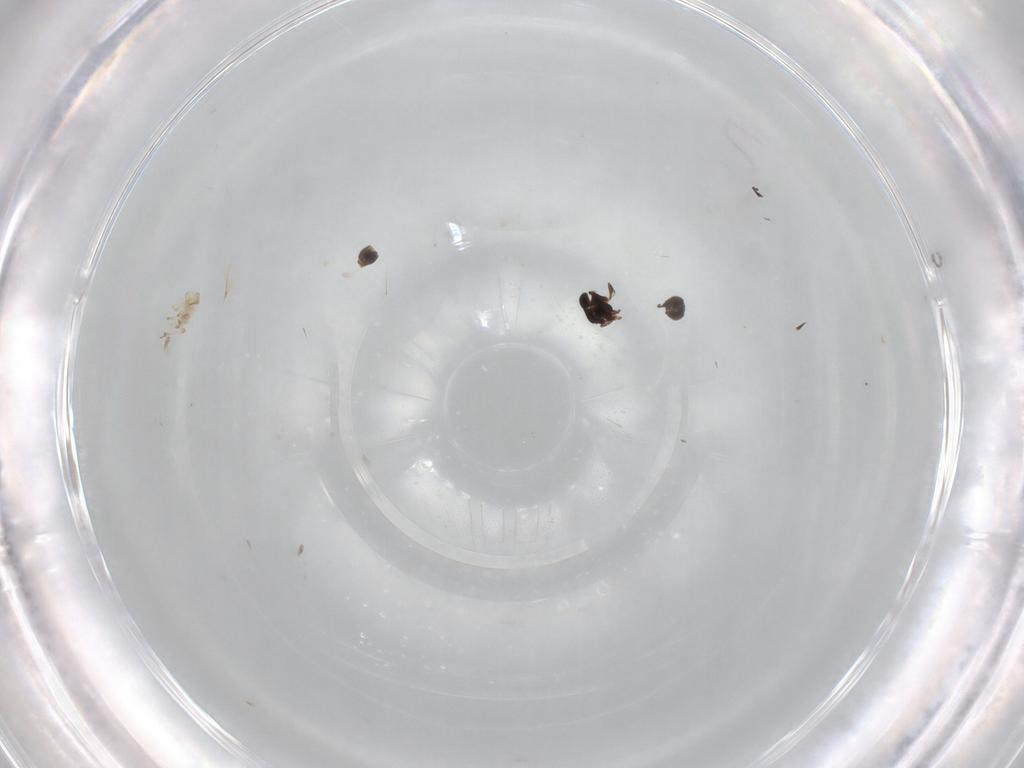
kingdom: Animalia
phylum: Arthropoda
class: Insecta
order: Diptera
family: Tachinidae
